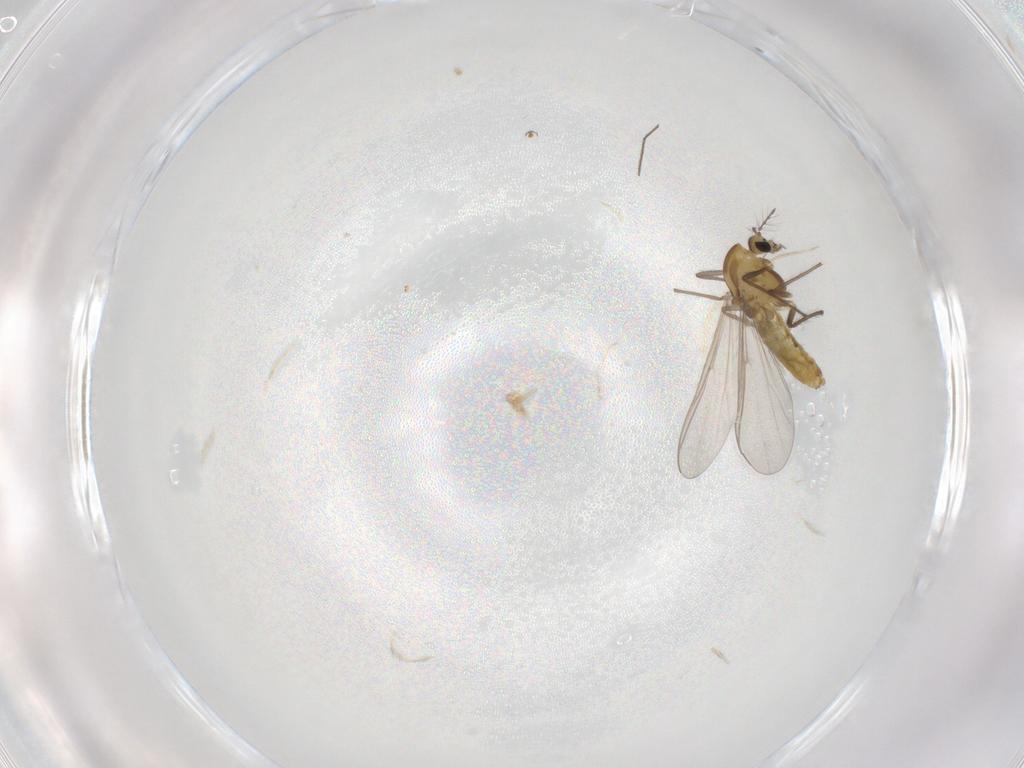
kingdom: Animalia
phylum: Arthropoda
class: Insecta
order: Diptera
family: Chironomidae
